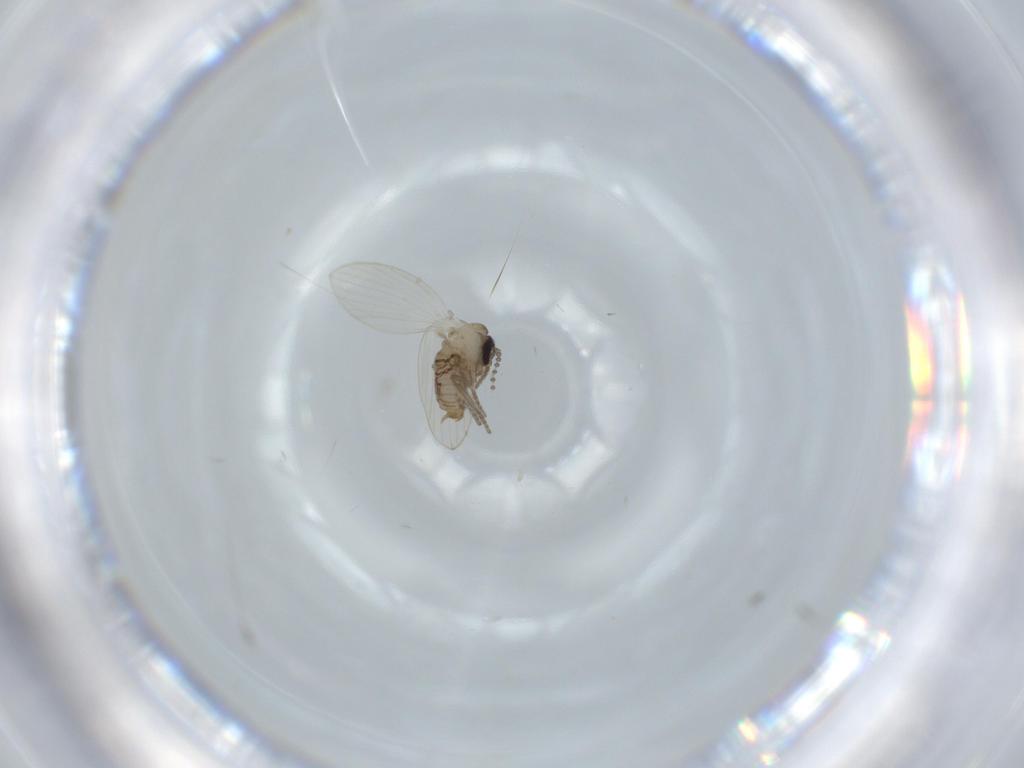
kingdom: Animalia
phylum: Arthropoda
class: Insecta
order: Diptera
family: Psychodidae
